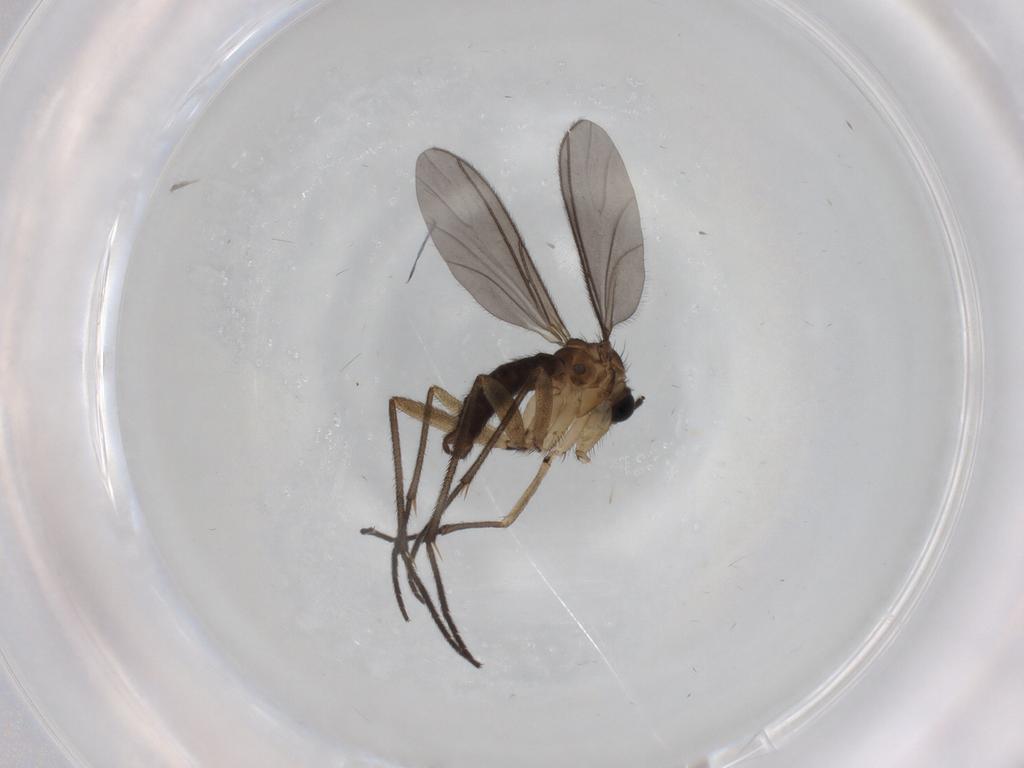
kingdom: Animalia
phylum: Arthropoda
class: Insecta
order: Diptera
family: Sciaridae
